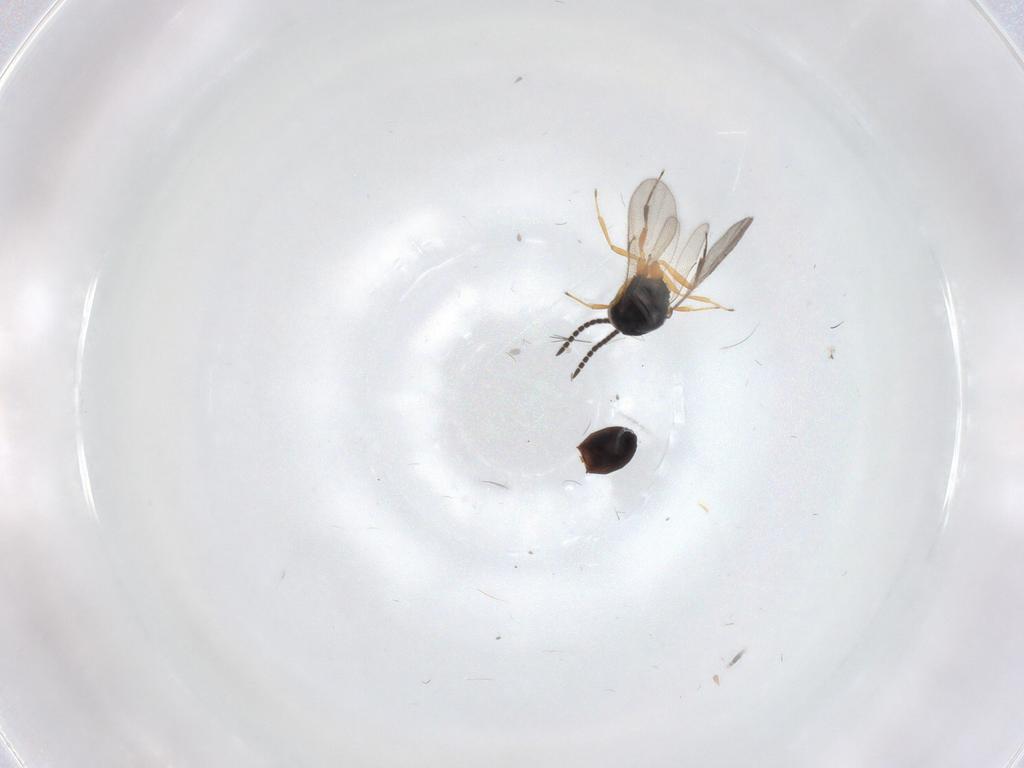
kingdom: Animalia
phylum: Arthropoda
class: Insecta
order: Hymenoptera
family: Scelionidae
